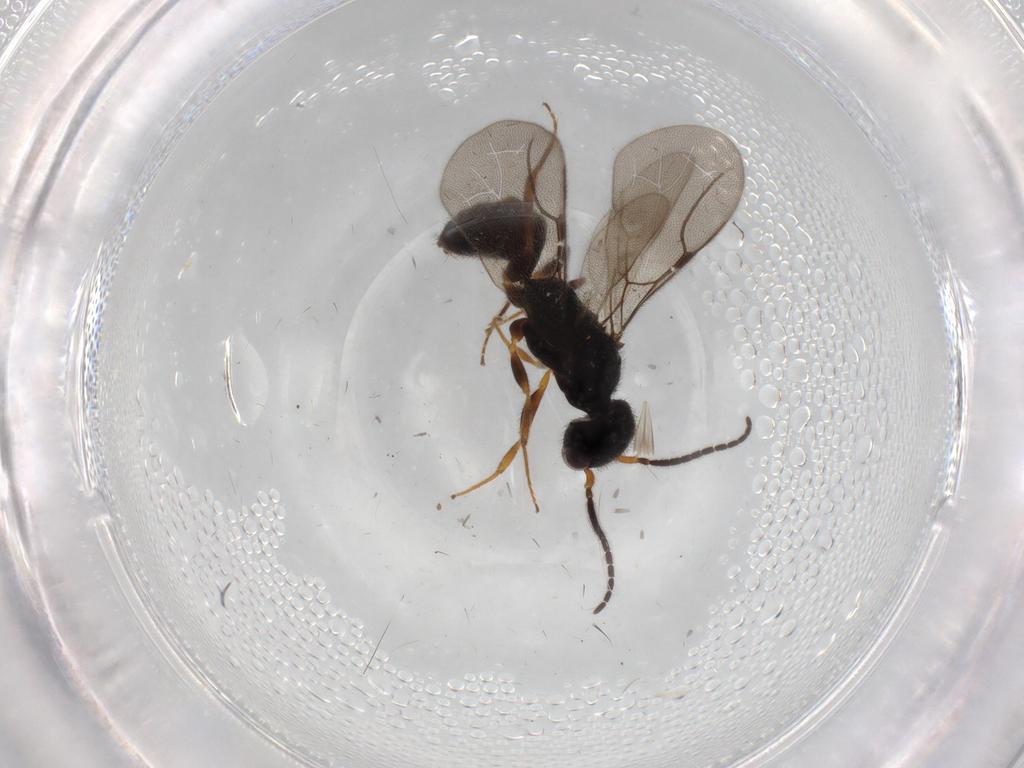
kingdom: Animalia
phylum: Arthropoda
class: Insecta
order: Hymenoptera
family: Bethylidae
